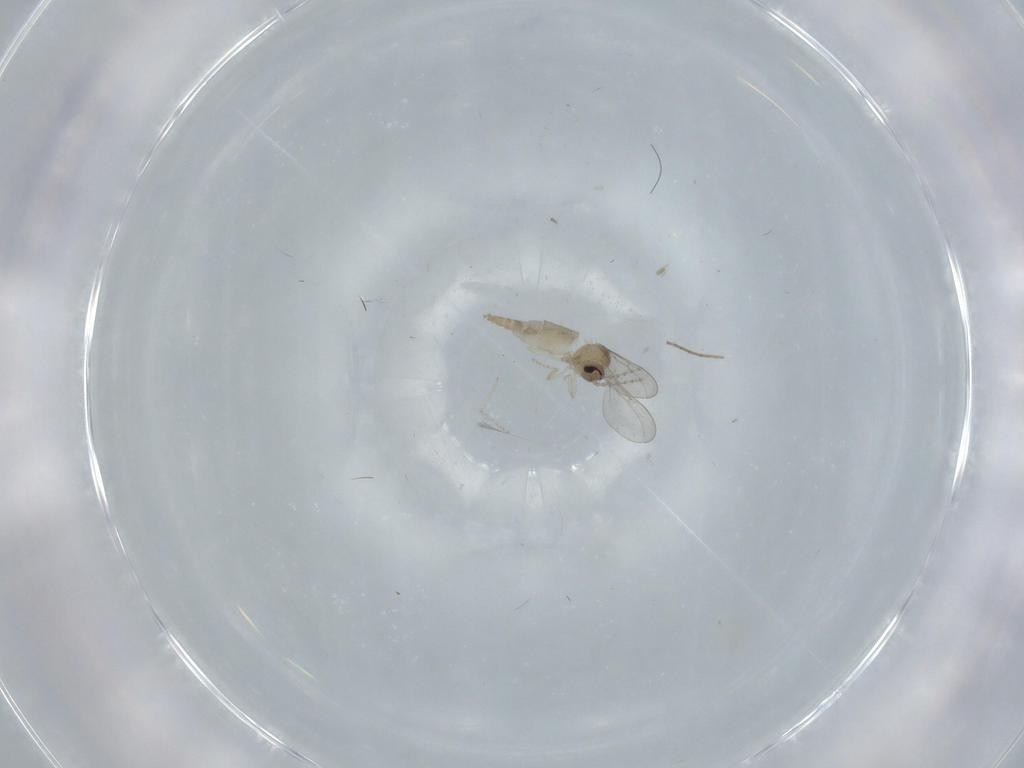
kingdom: Animalia
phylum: Arthropoda
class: Insecta
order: Diptera
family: Cecidomyiidae
